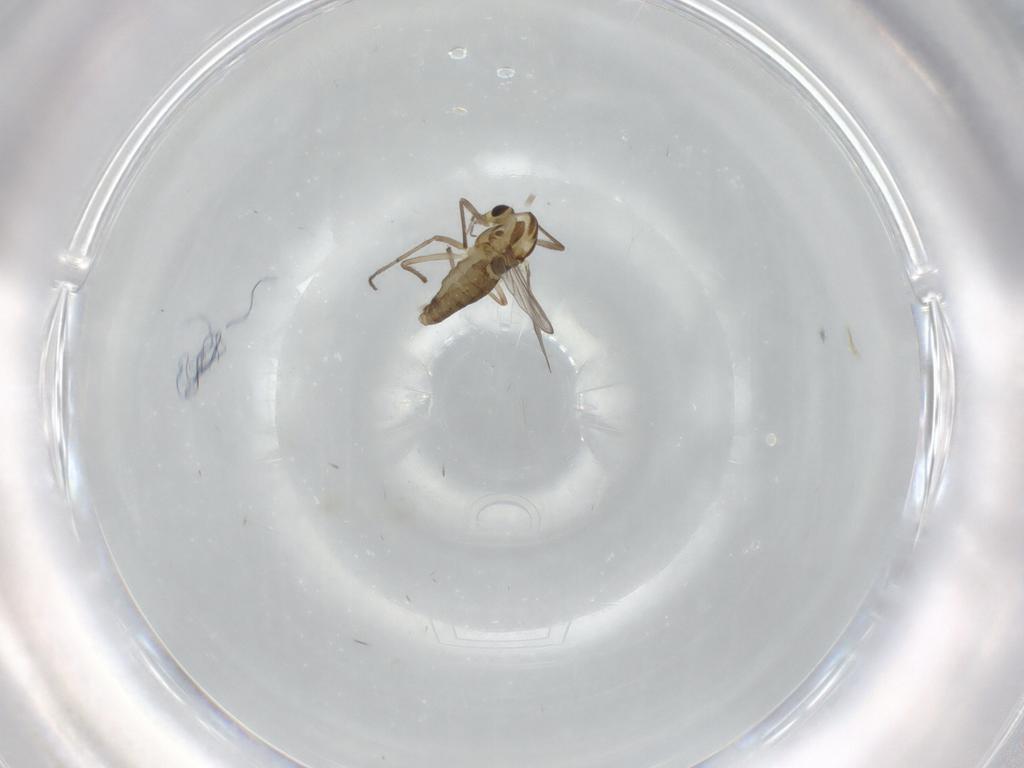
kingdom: Animalia
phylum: Arthropoda
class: Insecta
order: Diptera
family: Chironomidae
